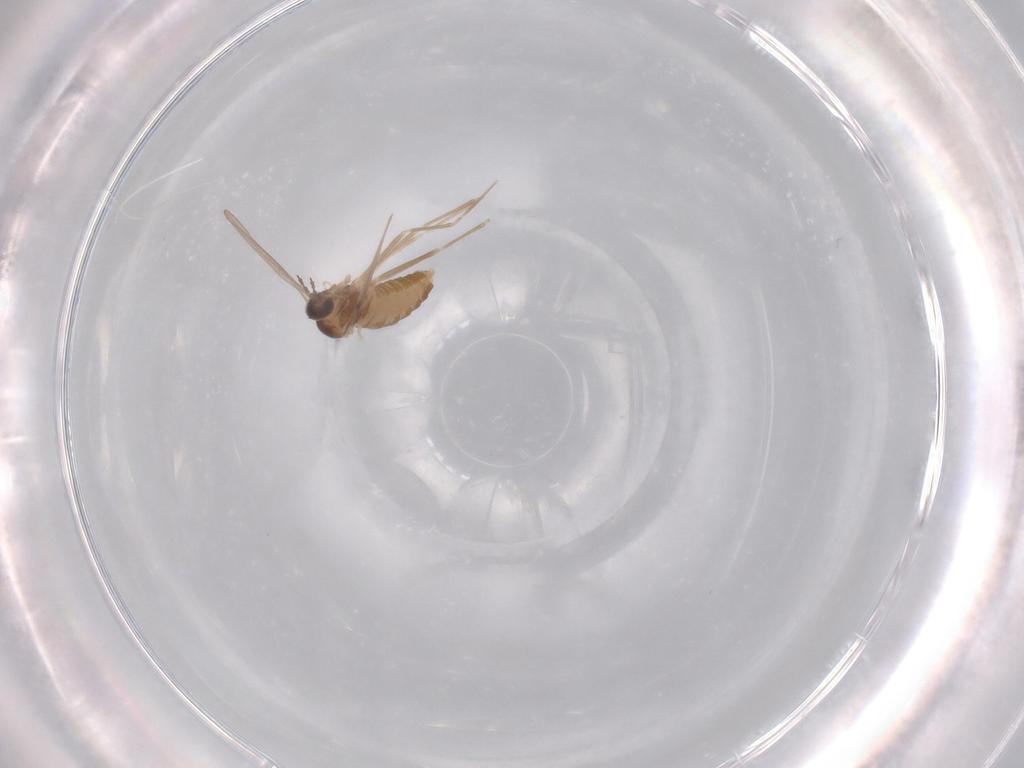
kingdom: Animalia
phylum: Arthropoda
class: Insecta
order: Diptera
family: Cecidomyiidae
